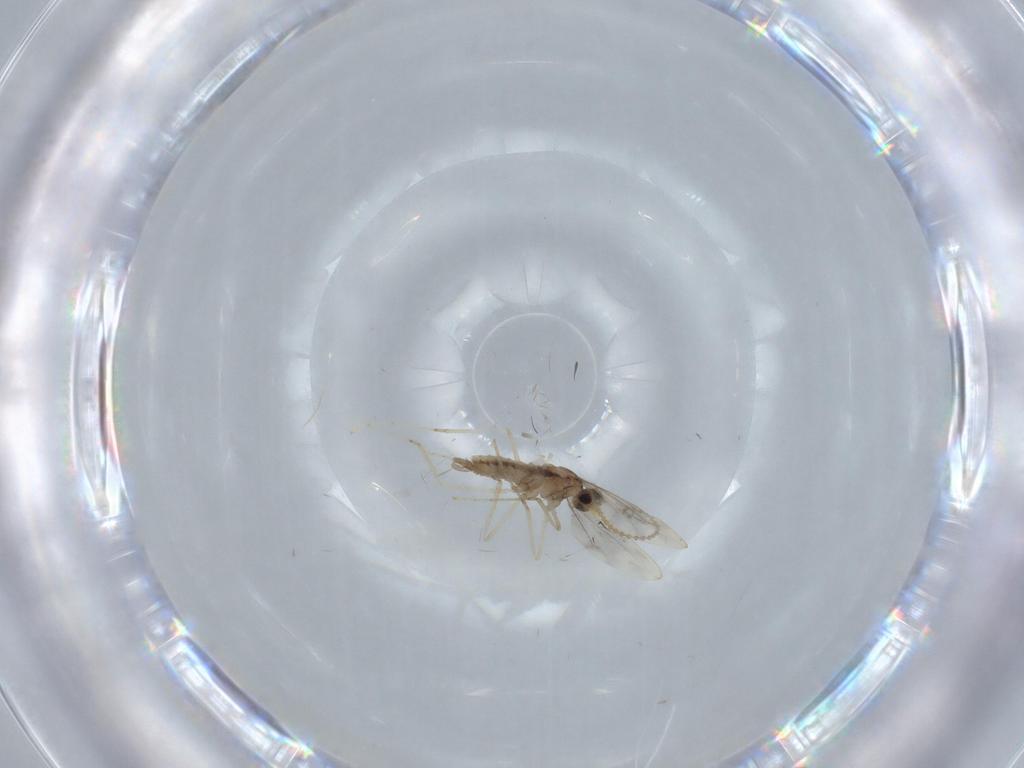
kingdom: Animalia
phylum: Arthropoda
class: Insecta
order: Diptera
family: Cecidomyiidae
